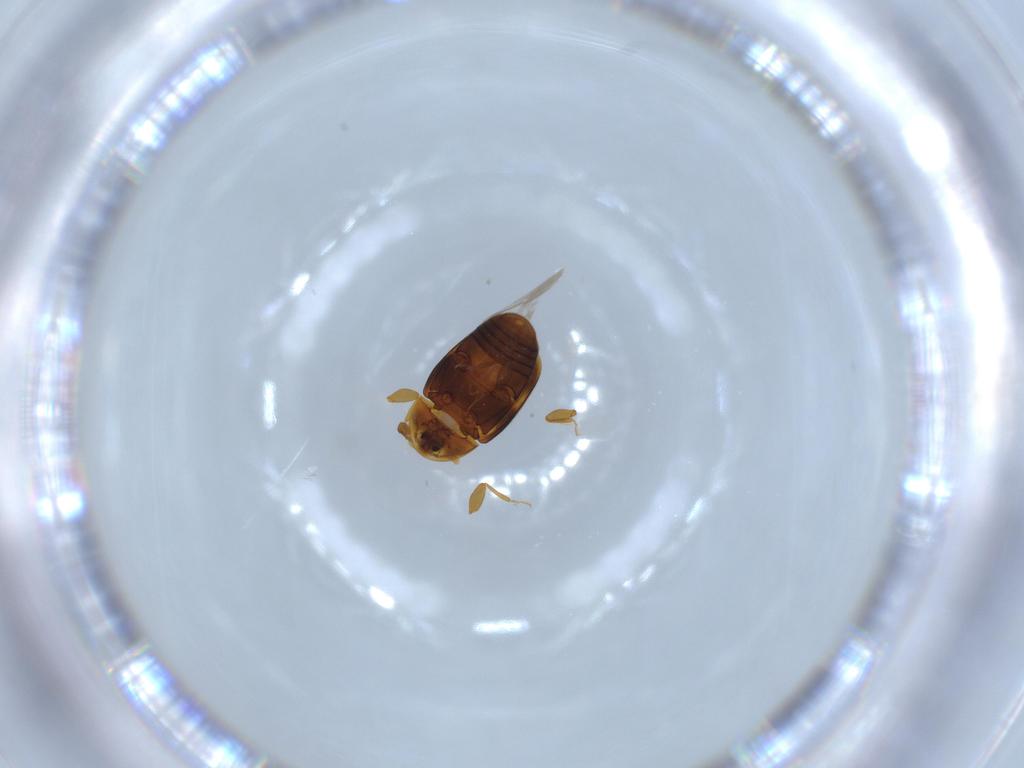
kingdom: Animalia
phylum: Arthropoda
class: Insecta
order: Coleoptera
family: Corylophidae
